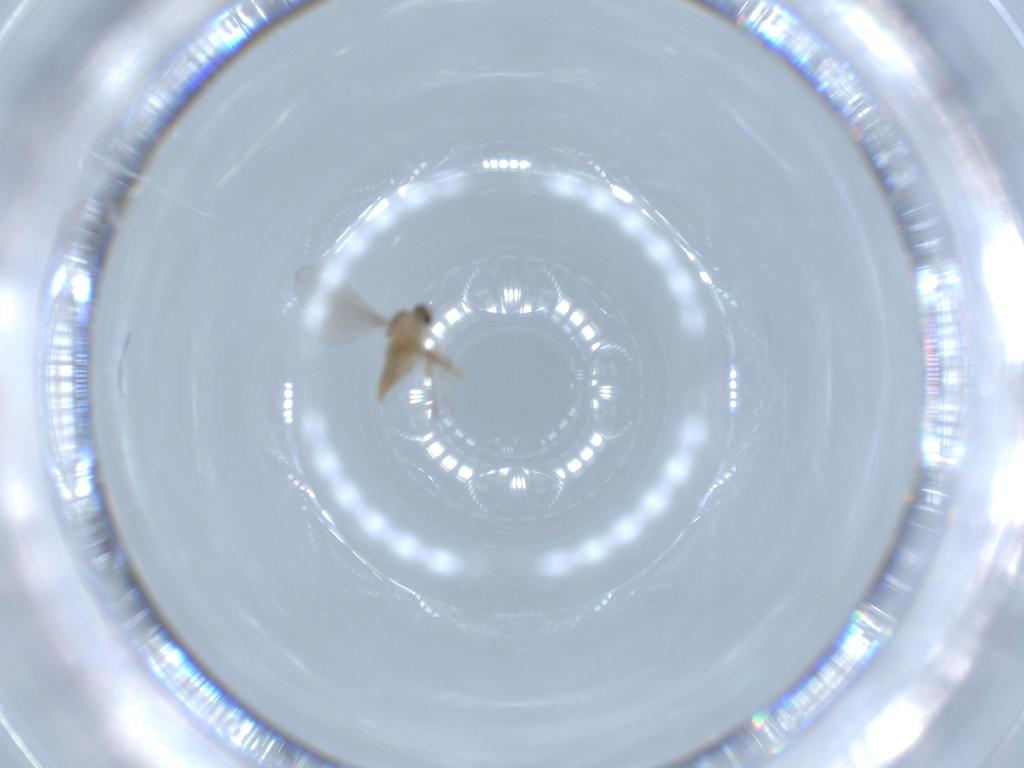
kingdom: Animalia
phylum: Arthropoda
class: Insecta
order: Diptera
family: Cecidomyiidae
